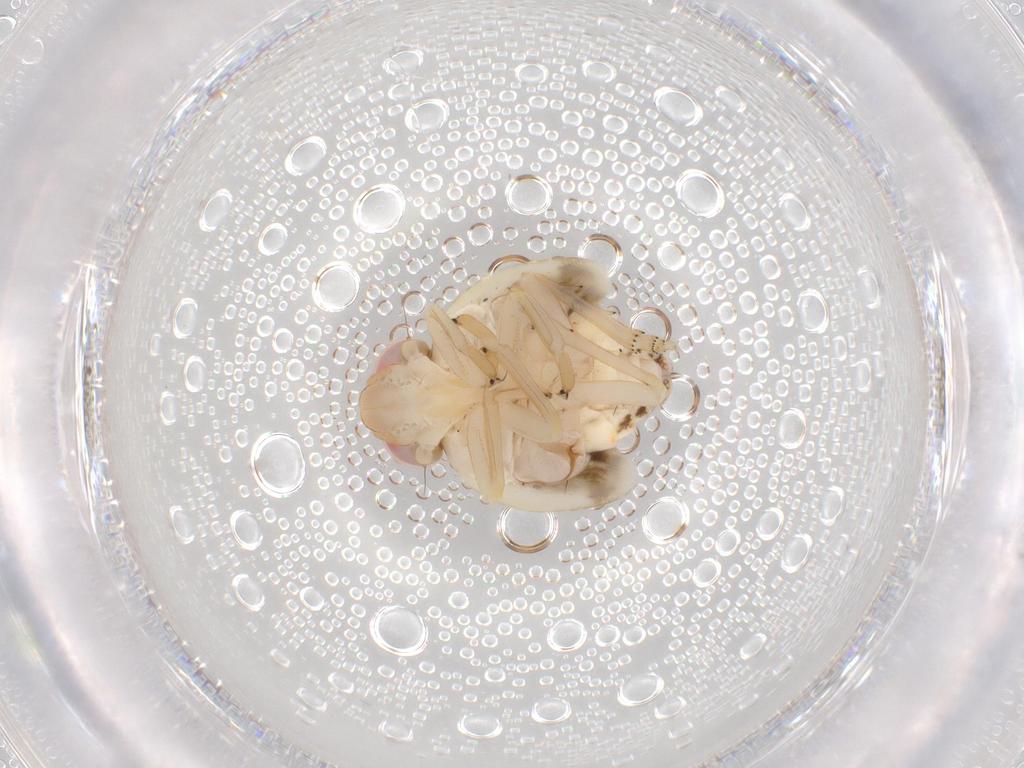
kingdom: Animalia
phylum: Arthropoda
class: Insecta
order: Hemiptera
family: Nogodinidae
